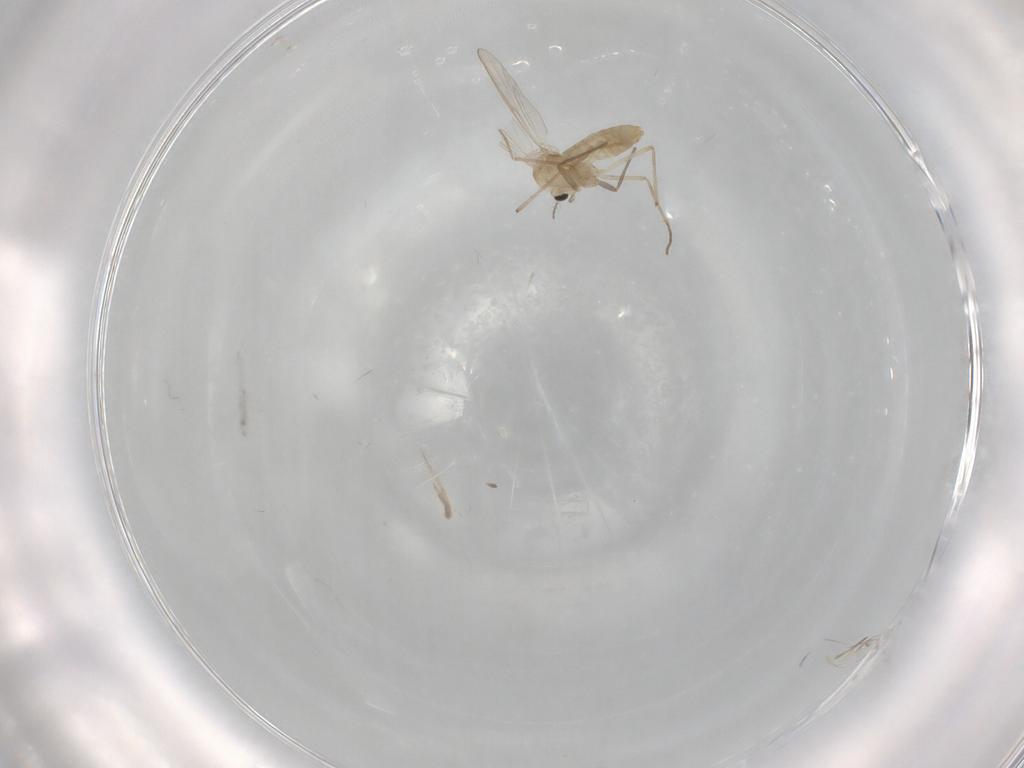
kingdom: Animalia
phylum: Arthropoda
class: Insecta
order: Diptera
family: Chironomidae
